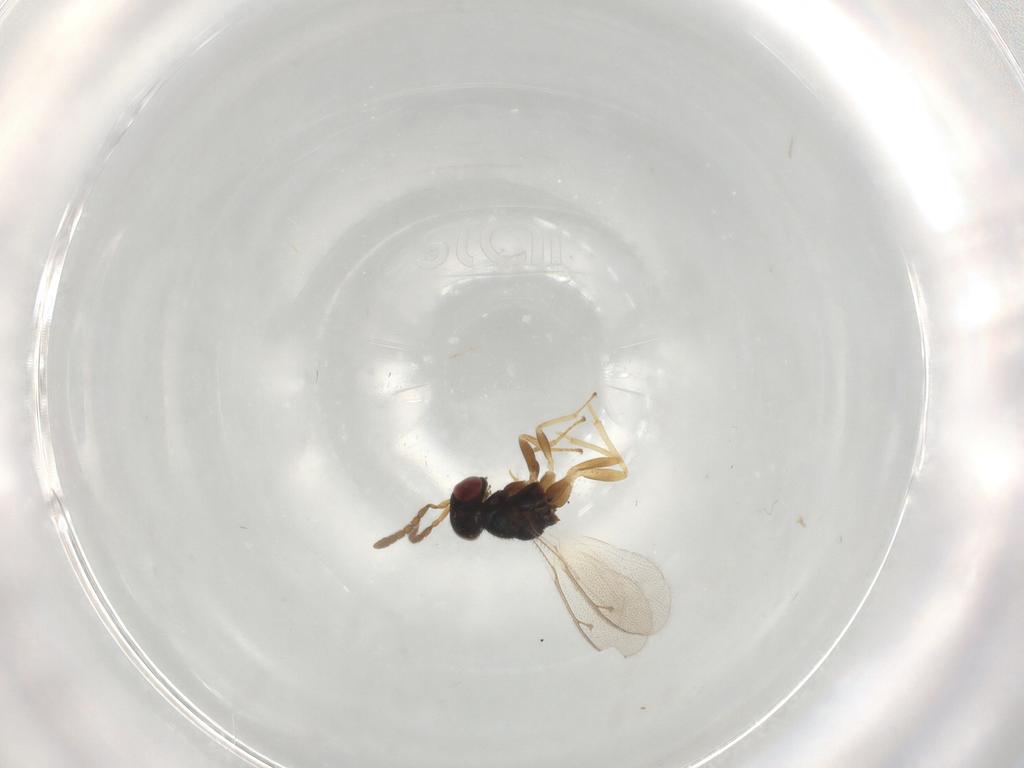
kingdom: Animalia
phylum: Arthropoda
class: Insecta
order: Hymenoptera
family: Mymaridae
